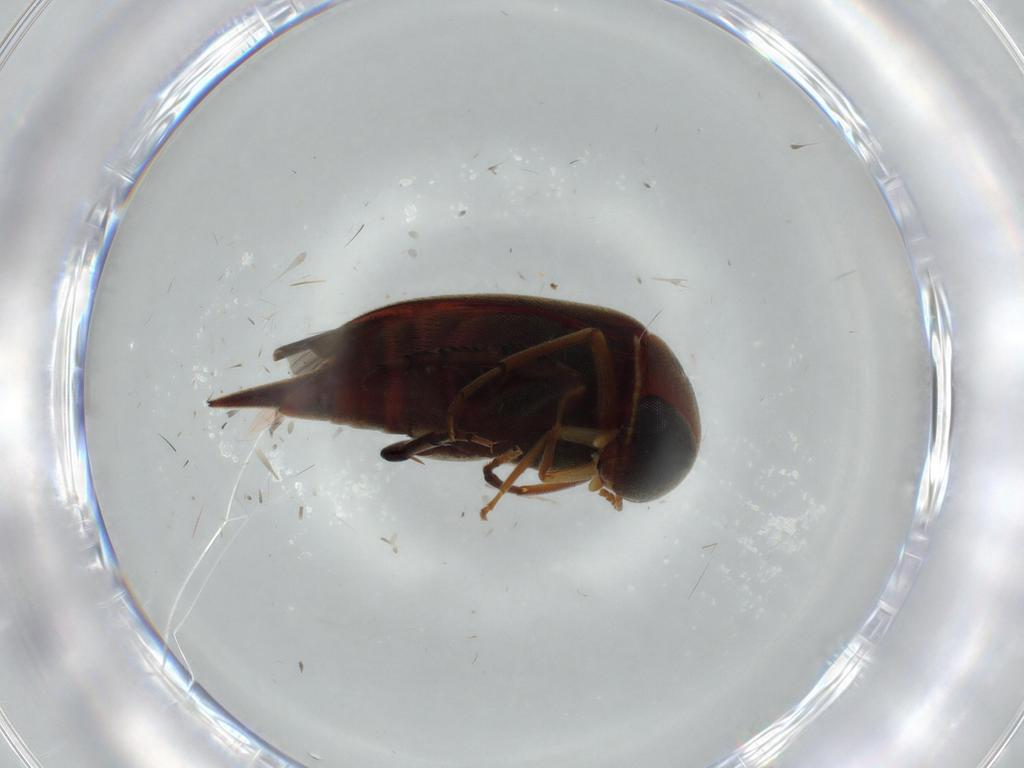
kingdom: Animalia
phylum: Arthropoda
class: Insecta
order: Coleoptera
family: Mordellidae
